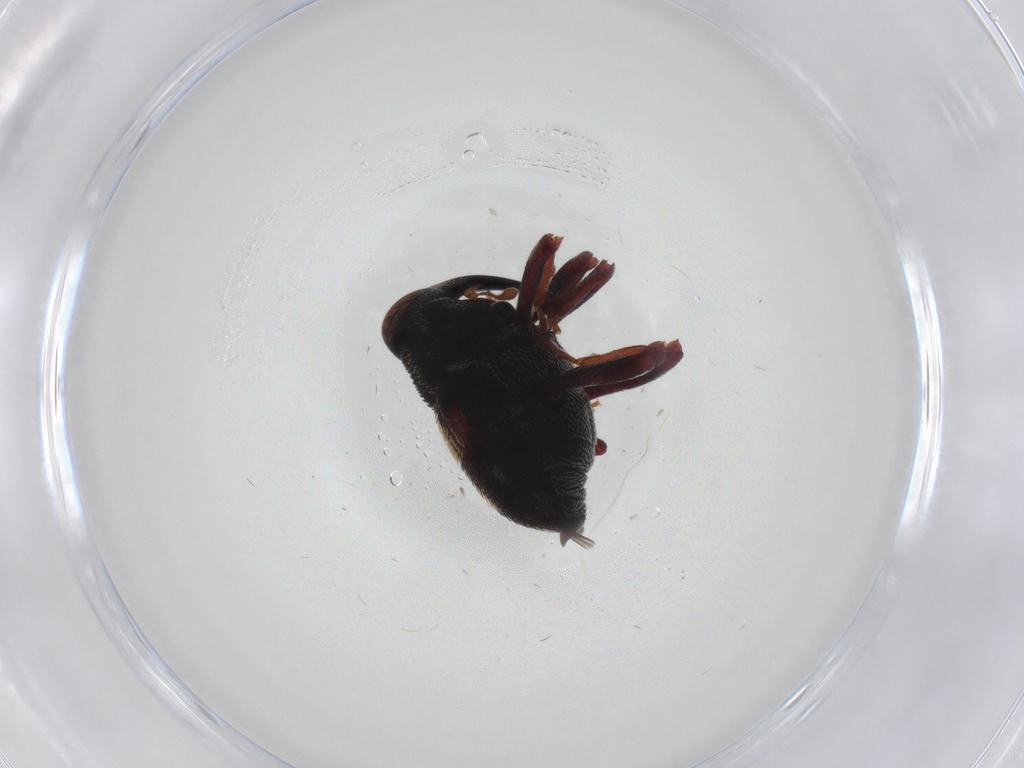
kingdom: Animalia
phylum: Arthropoda
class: Insecta
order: Coleoptera
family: Curculionidae
